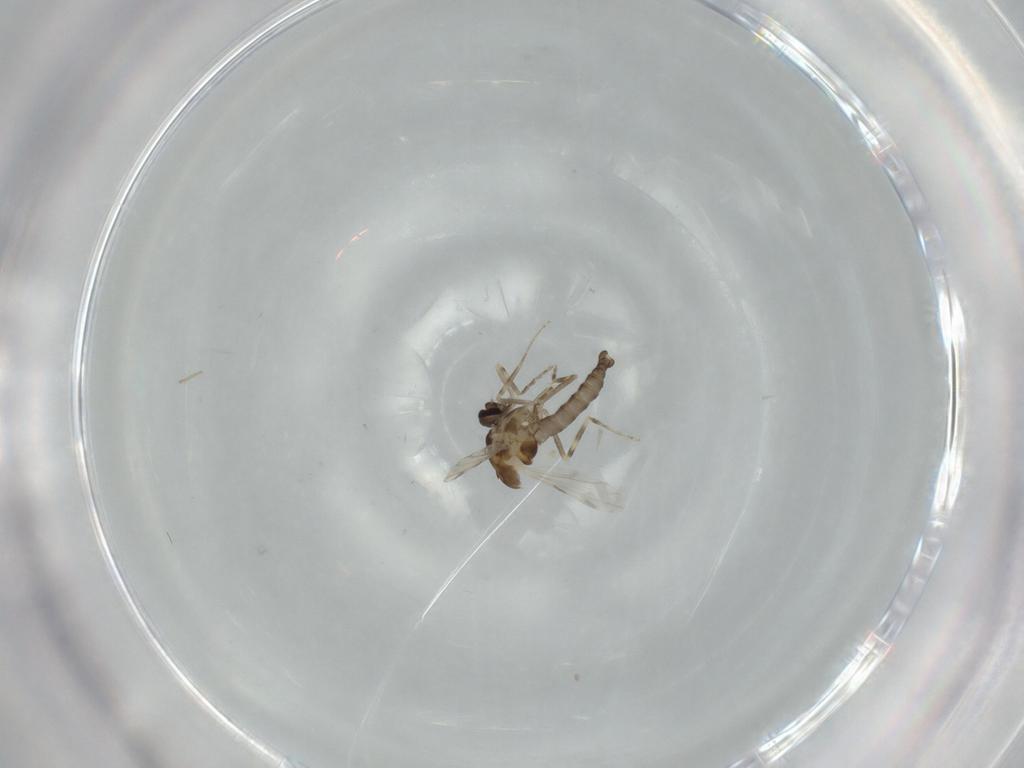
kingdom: Animalia
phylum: Arthropoda
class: Insecta
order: Diptera
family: Ceratopogonidae
